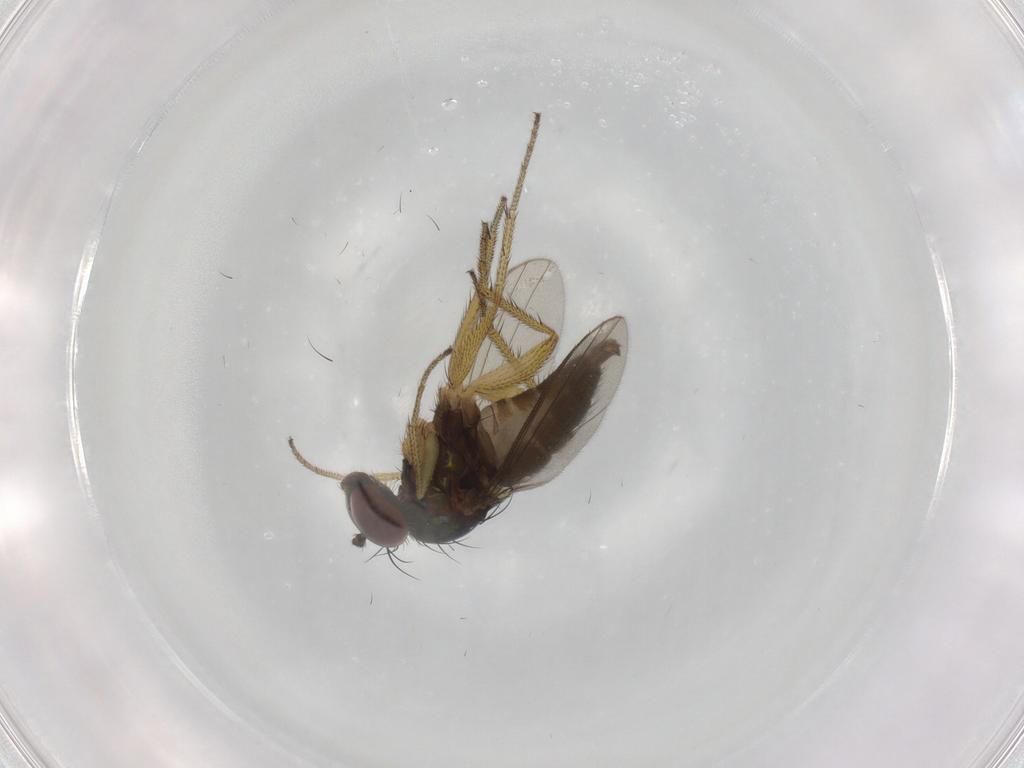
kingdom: Animalia
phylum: Arthropoda
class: Insecta
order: Diptera
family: Dolichopodidae
